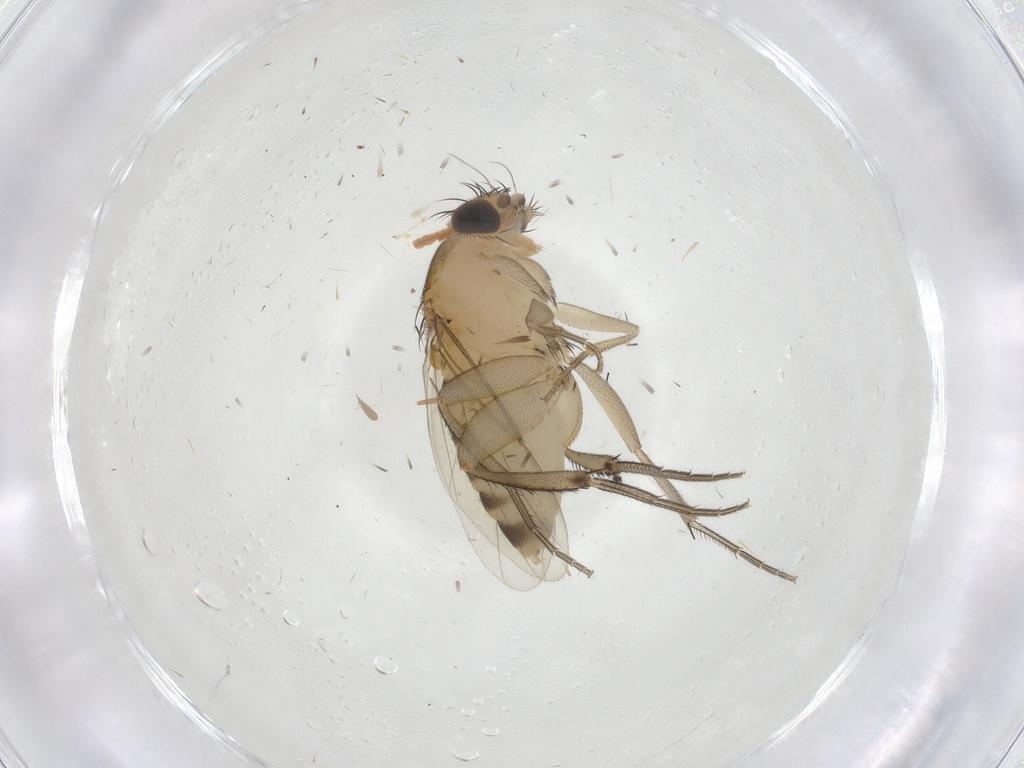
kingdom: Animalia
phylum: Arthropoda
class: Insecta
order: Diptera
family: Phoridae
